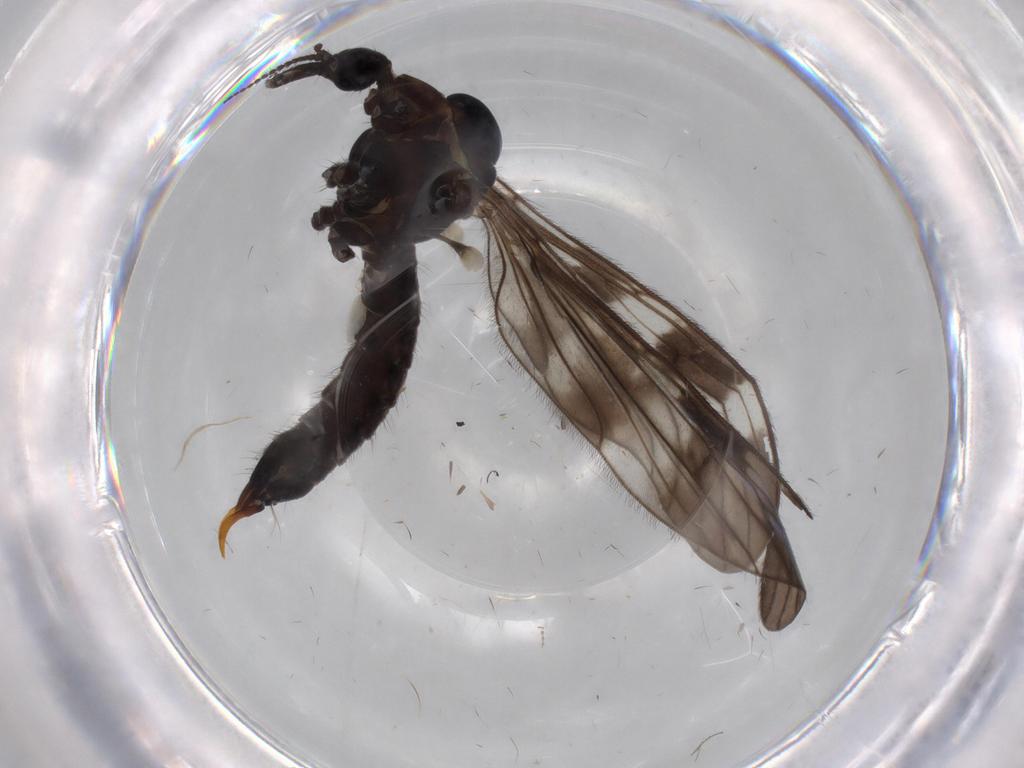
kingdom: Animalia
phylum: Arthropoda
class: Insecta
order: Diptera
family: Limoniidae
